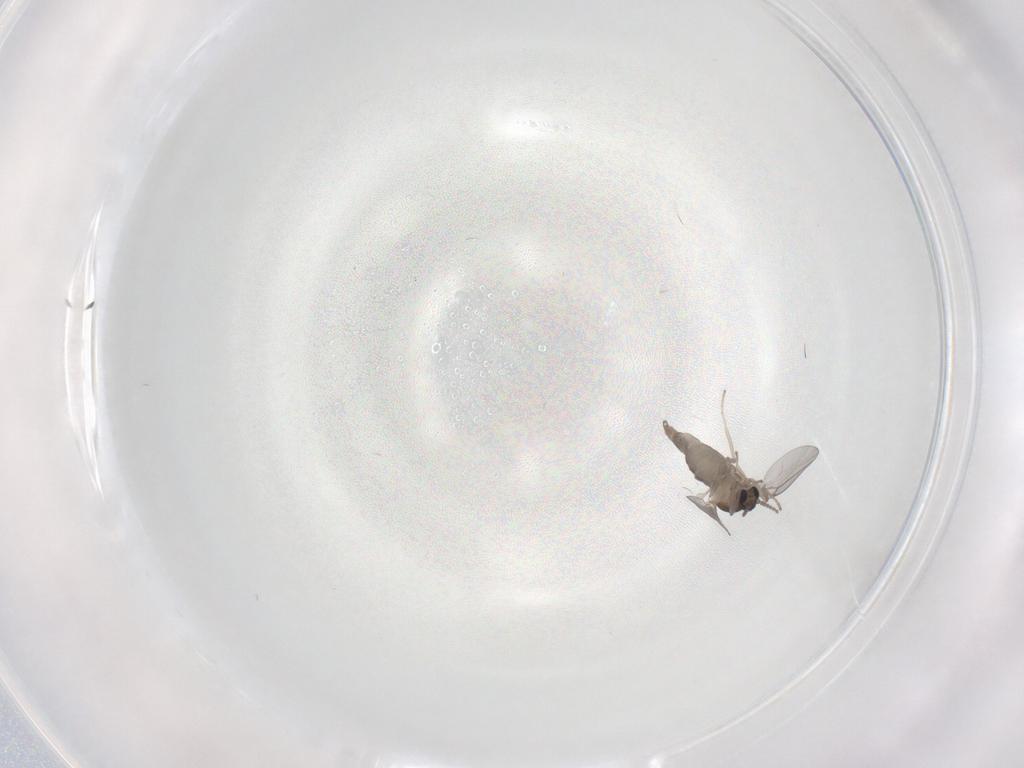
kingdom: Animalia
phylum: Arthropoda
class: Insecta
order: Diptera
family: Cecidomyiidae
